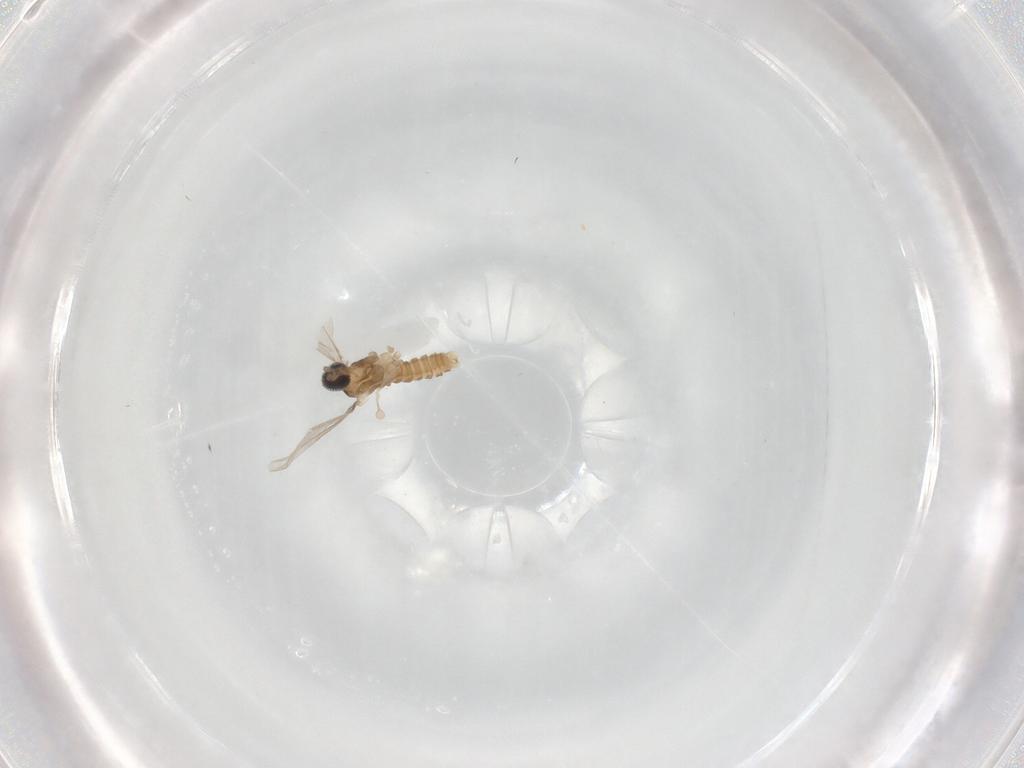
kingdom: Animalia
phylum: Arthropoda
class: Insecta
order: Diptera
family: Cecidomyiidae
